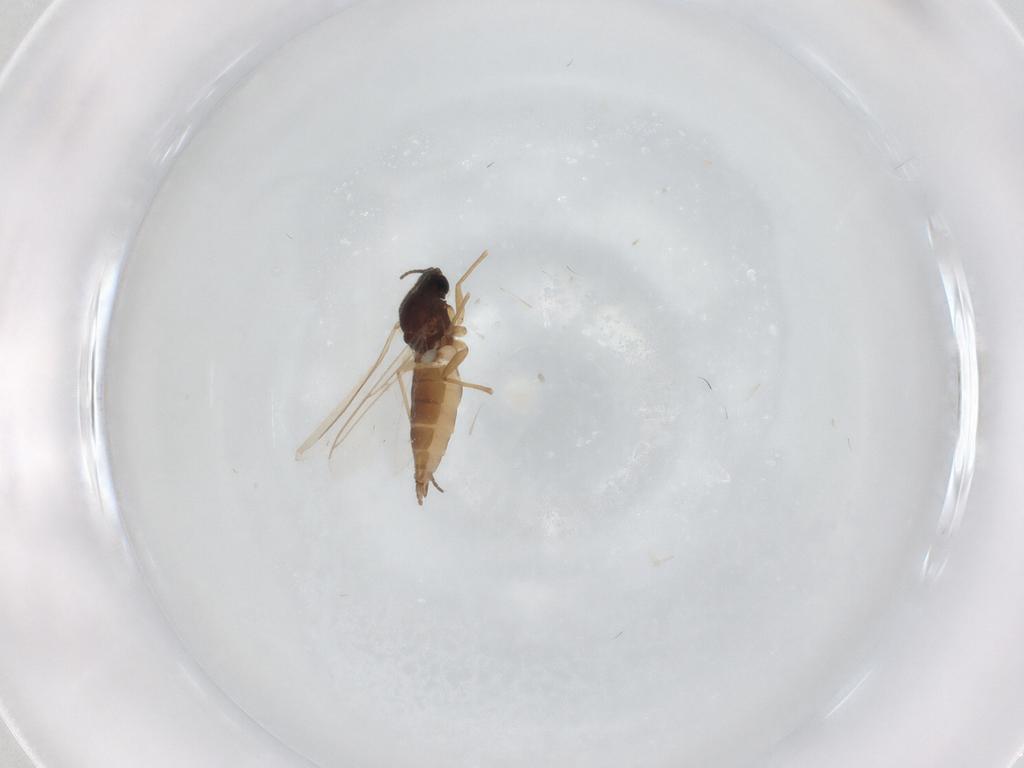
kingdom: Animalia
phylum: Arthropoda
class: Insecta
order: Diptera
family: Sciaridae
